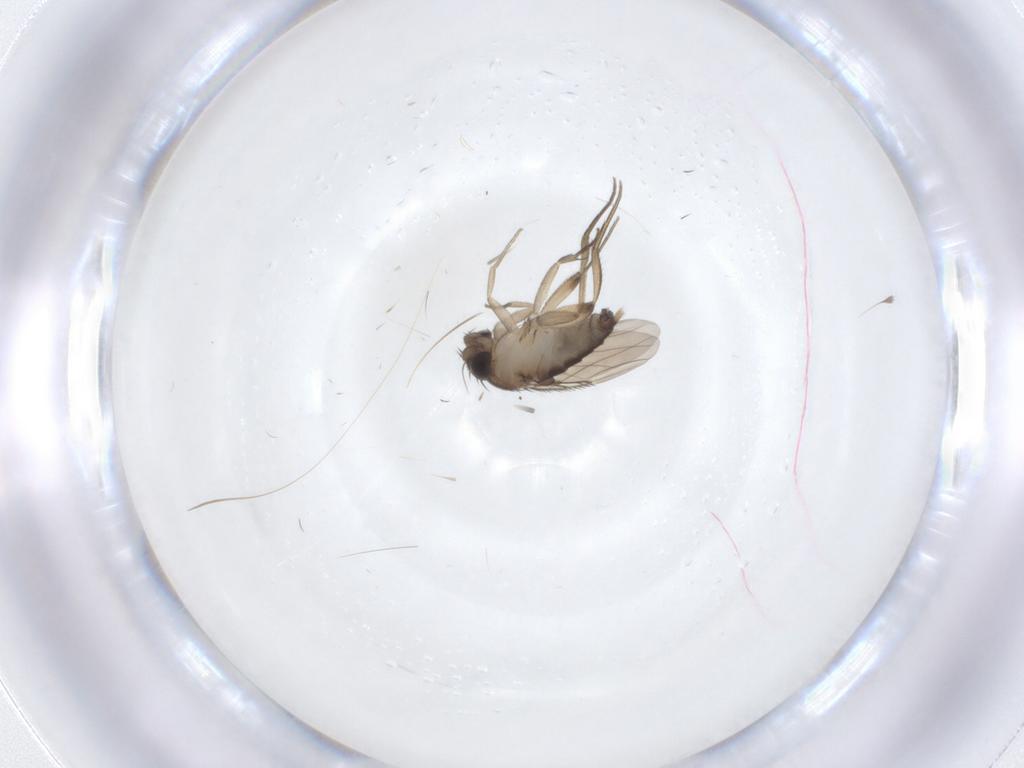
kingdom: Animalia
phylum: Arthropoda
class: Insecta
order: Diptera
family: Phoridae
